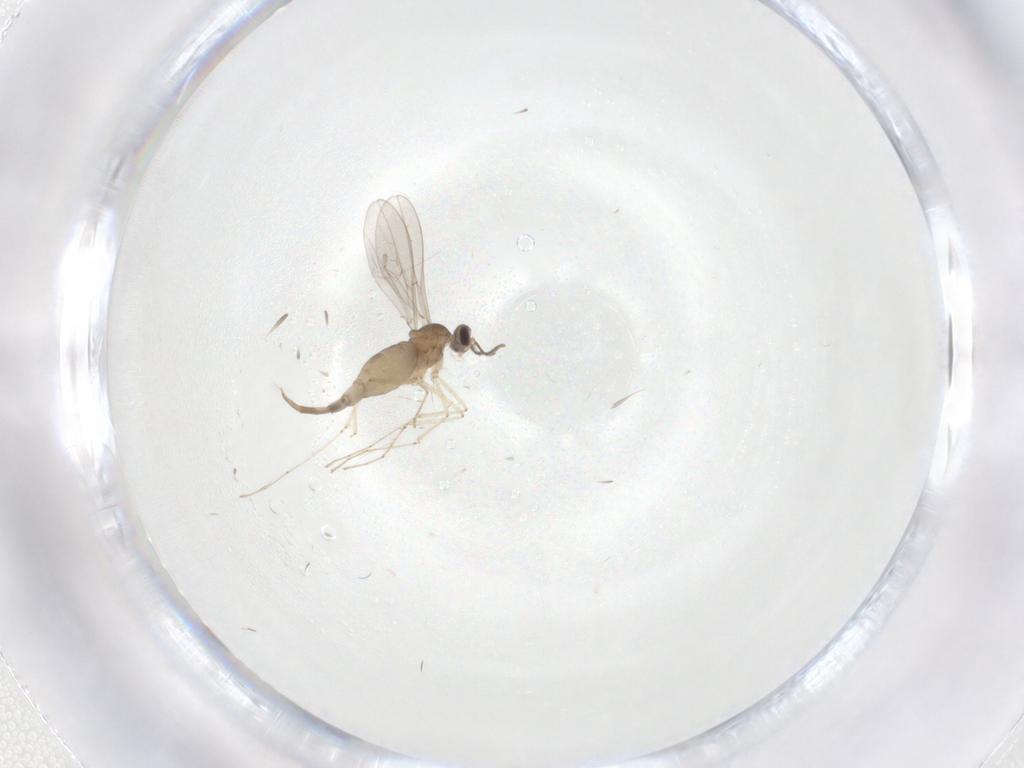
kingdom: Animalia
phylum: Arthropoda
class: Insecta
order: Diptera
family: Cecidomyiidae
